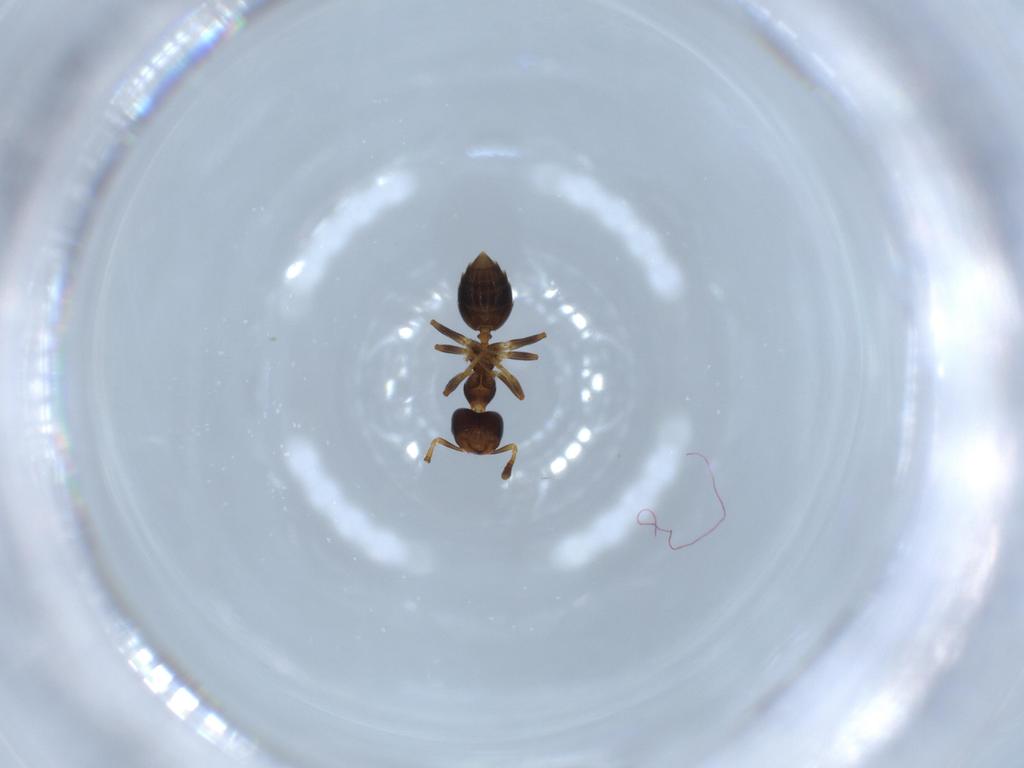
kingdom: Animalia
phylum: Arthropoda
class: Insecta
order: Hymenoptera
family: Formicidae
